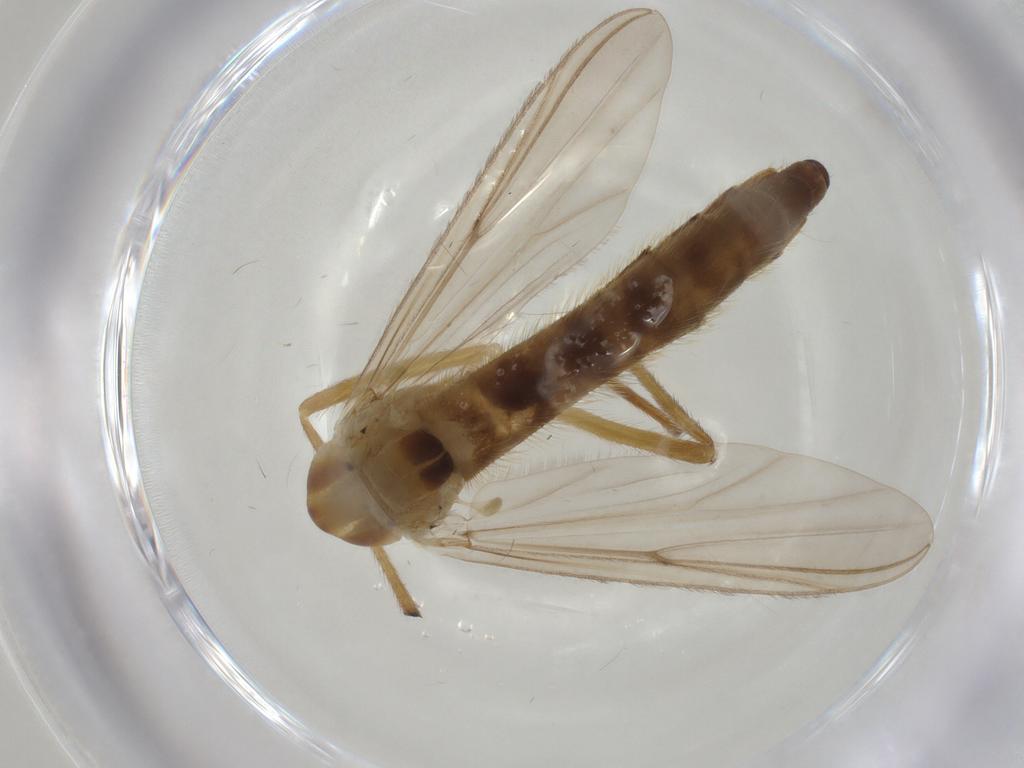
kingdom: Animalia
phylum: Arthropoda
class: Insecta
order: Diptera
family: Chironomidae
